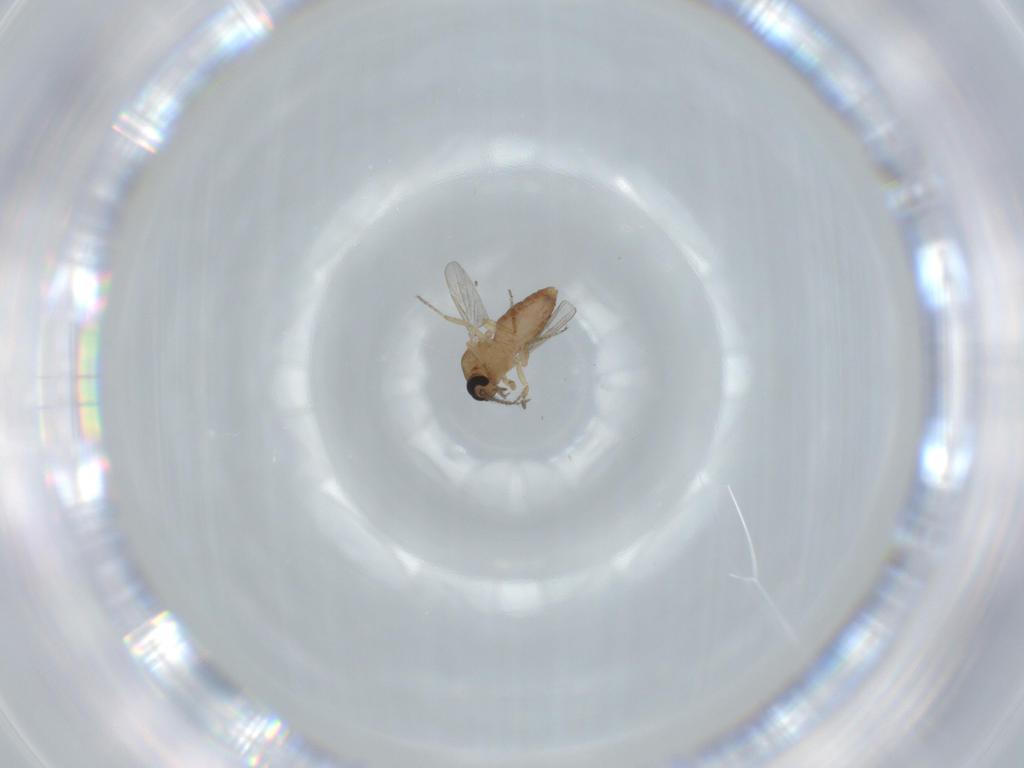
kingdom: Animalia
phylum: Arthropoda
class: Insecta
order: Diptera
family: Ceratopogonidae
